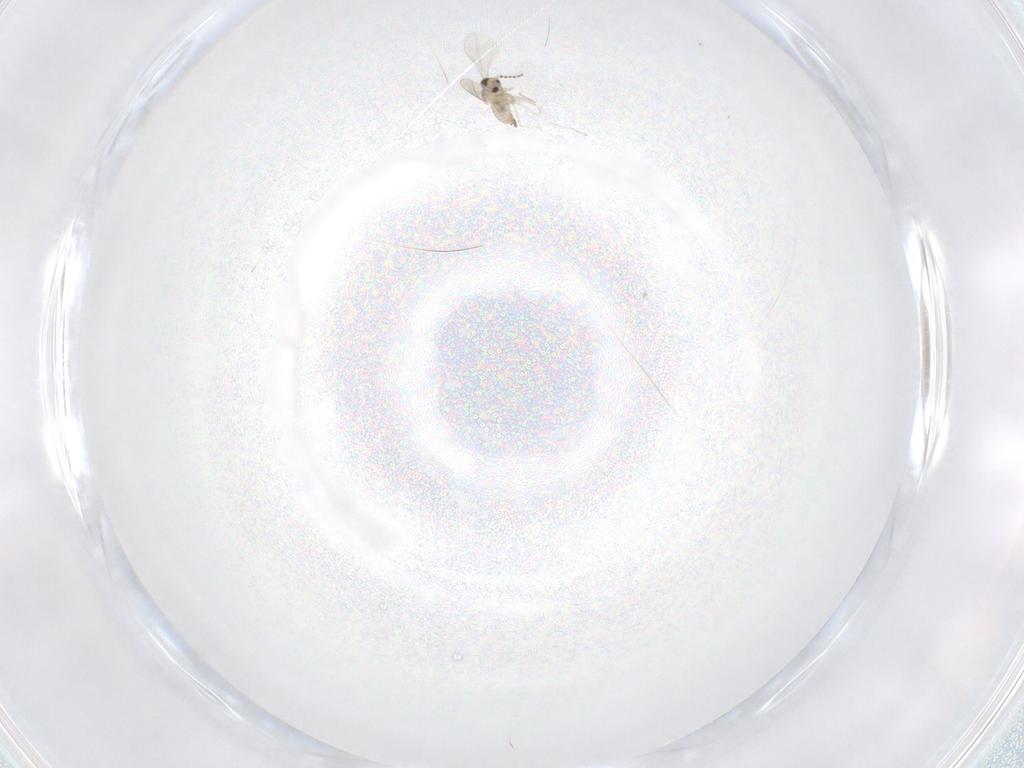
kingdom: Animalia
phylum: Arthropoda
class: Insecta
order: Diptera
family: Cecidomyiidae
